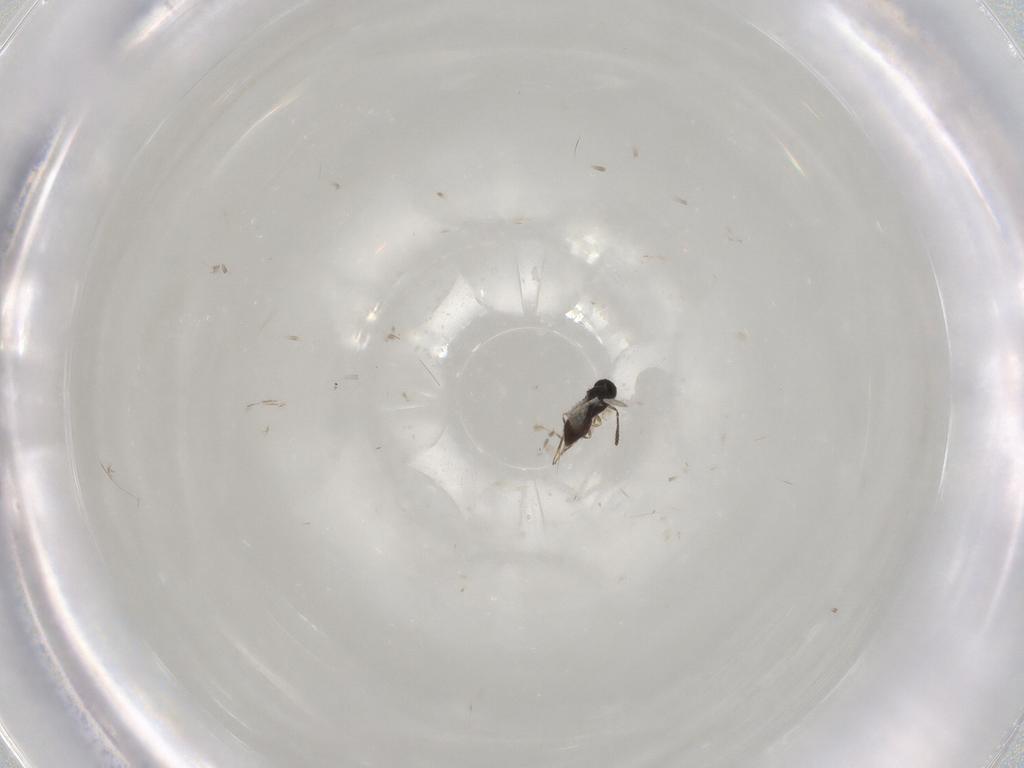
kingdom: Animalia
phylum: Arthropoda
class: Insecta
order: Hymenoptera
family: Scelionidae
